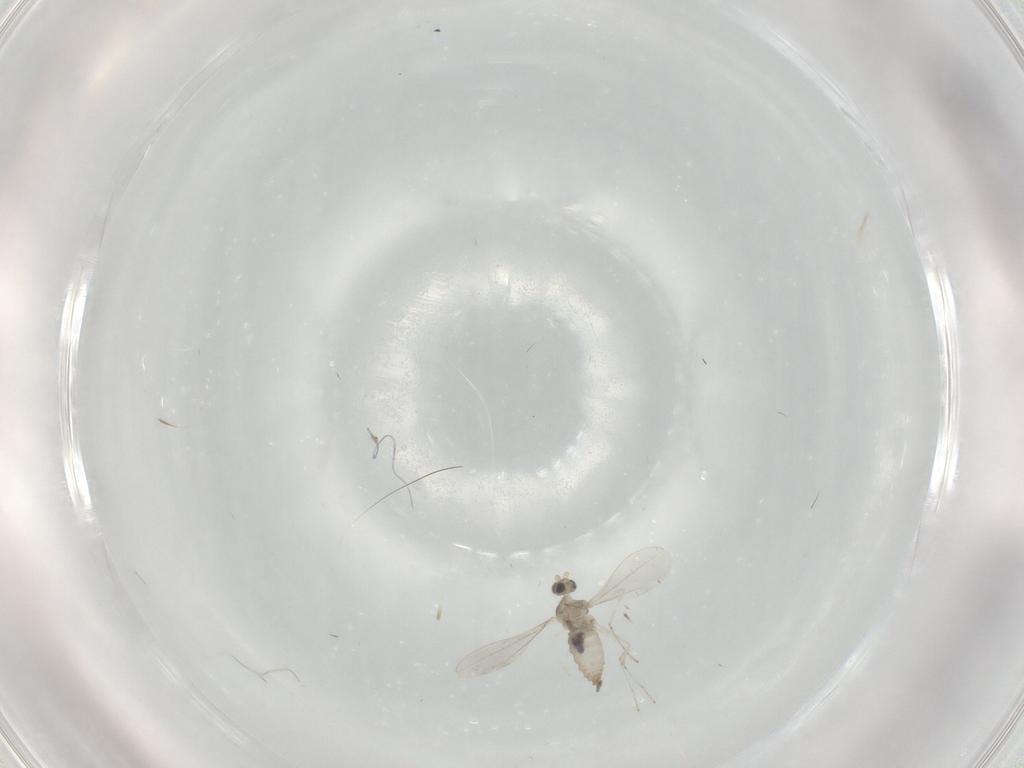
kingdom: Animalia
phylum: Arthropoda
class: Insecta
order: Diptera
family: Cecidomyiidae
